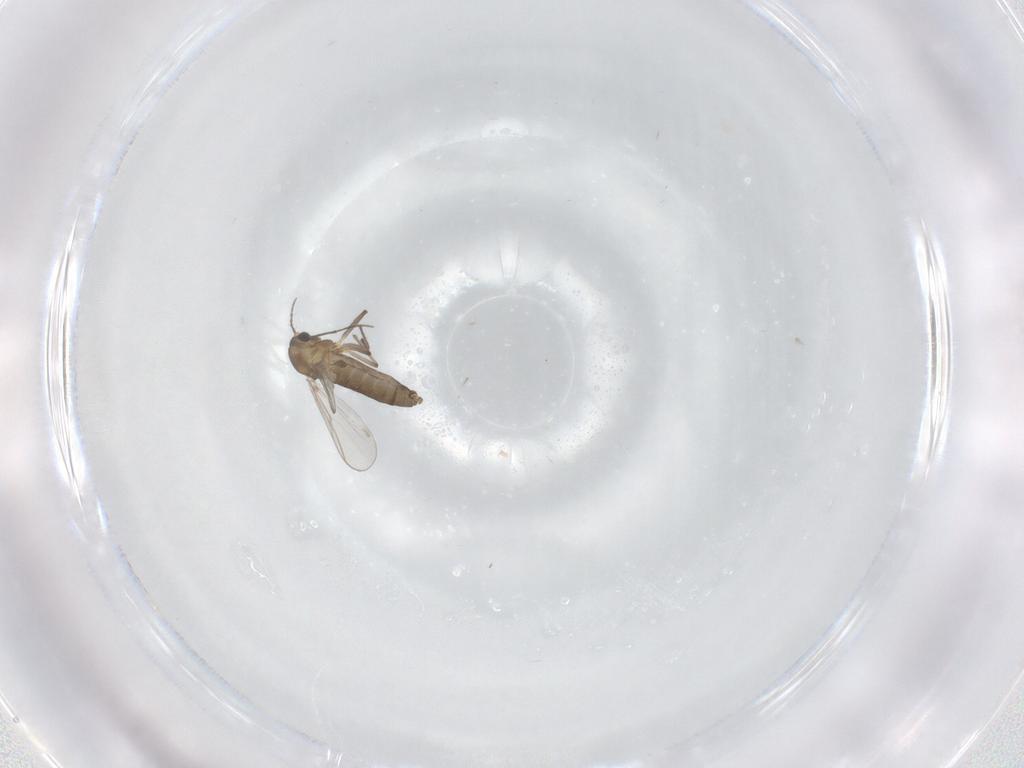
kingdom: Animalia
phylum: Arthropoda
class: Insecta
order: Diptera
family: Chironomidae
